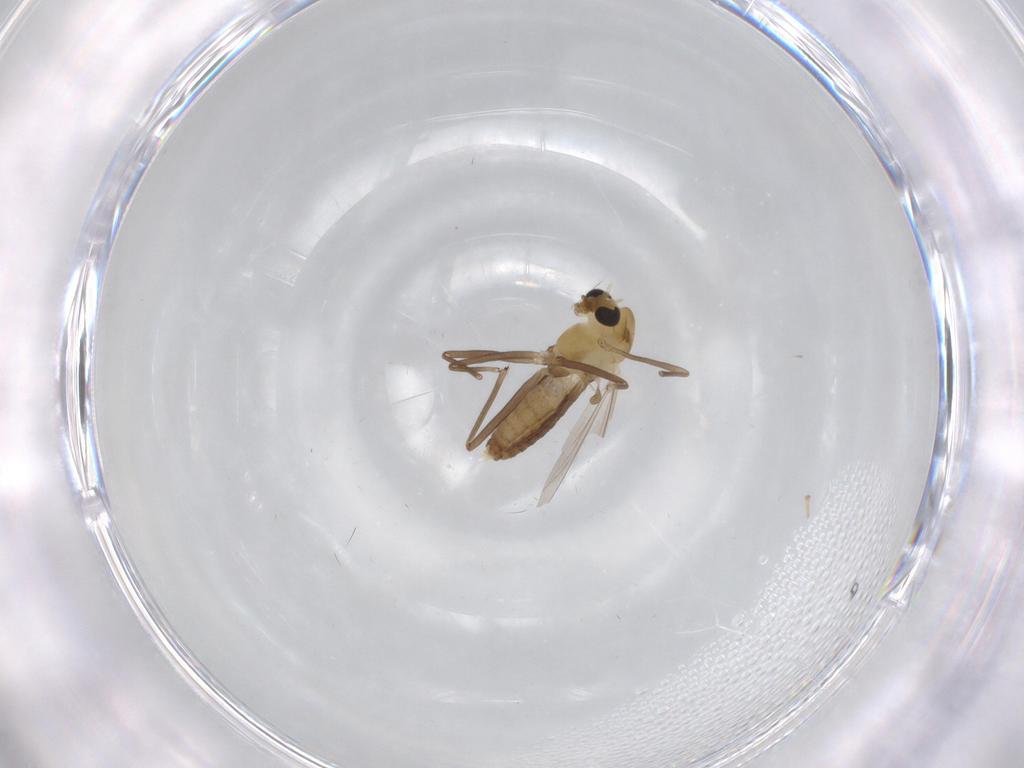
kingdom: Animalia
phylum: Arthropoda
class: Insecta
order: Diptera
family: Chironomidae
